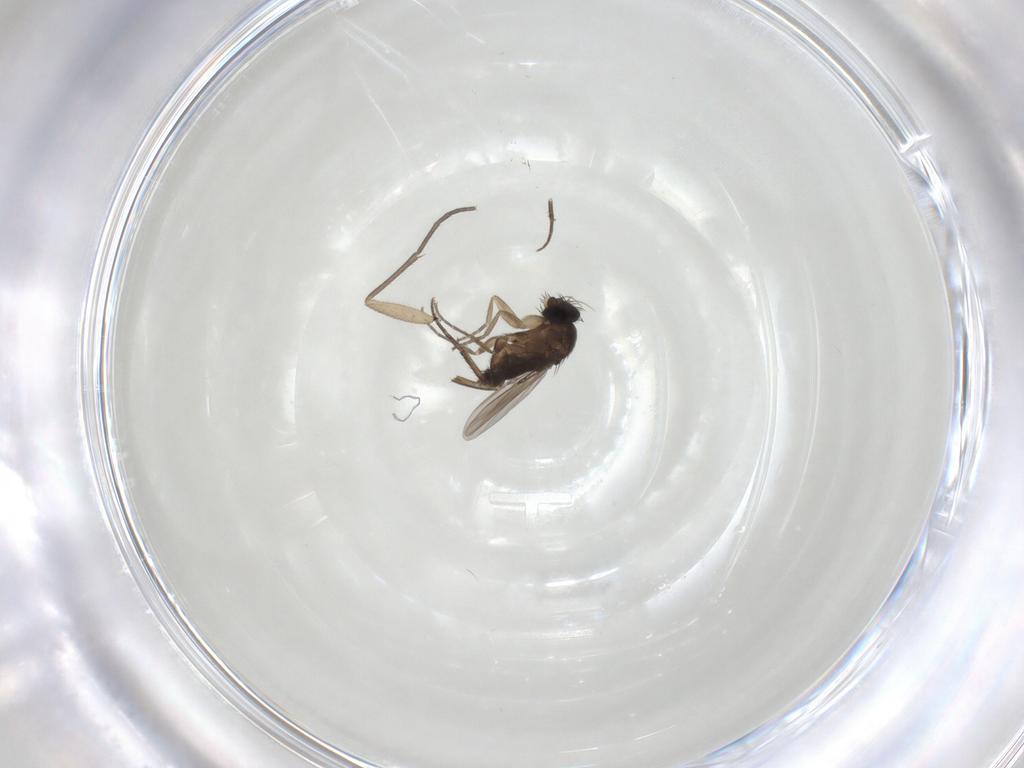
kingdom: Animalia
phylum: Arthropoda
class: Insecta
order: Diptera
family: Phoridae
